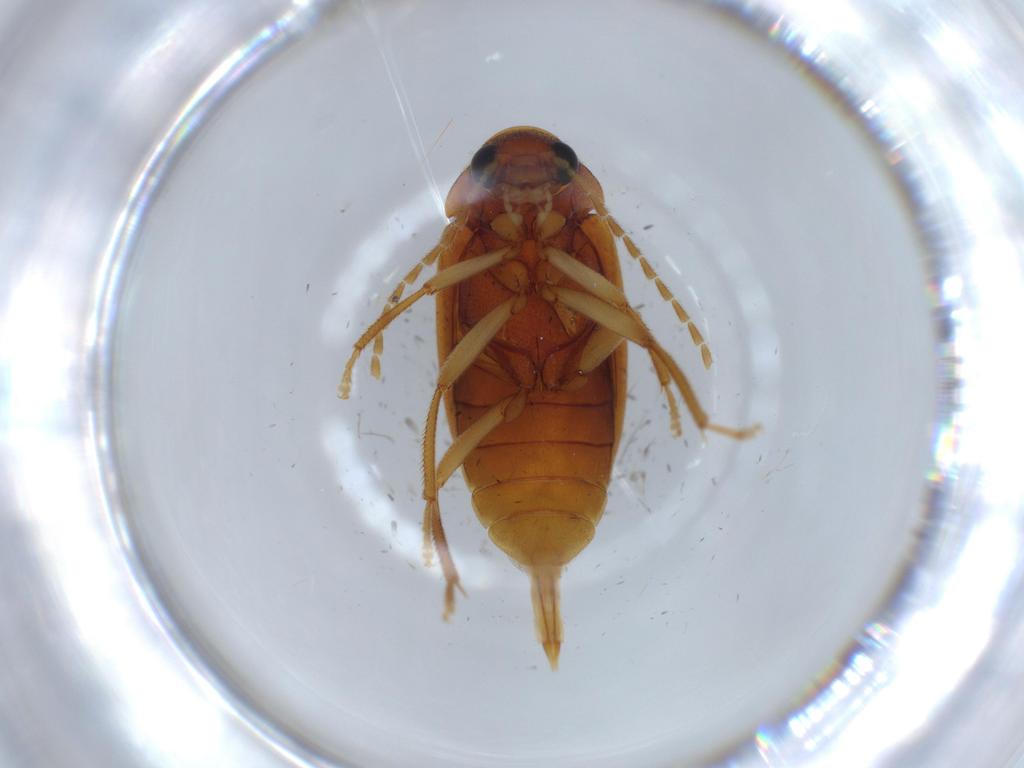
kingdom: Animalia
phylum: Arthropoda
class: Insecta
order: Coleoptera
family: Ptilodactylidae
